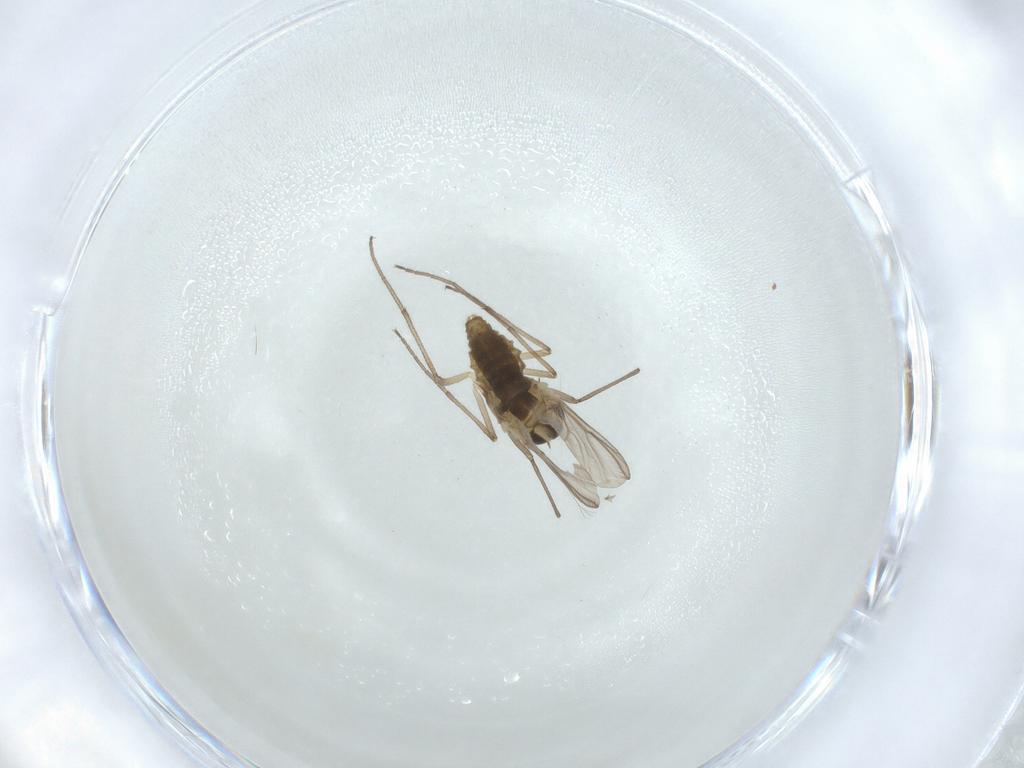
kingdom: Animalia
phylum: Arthropoda
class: Insecta
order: Diptera
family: Chironomidae
